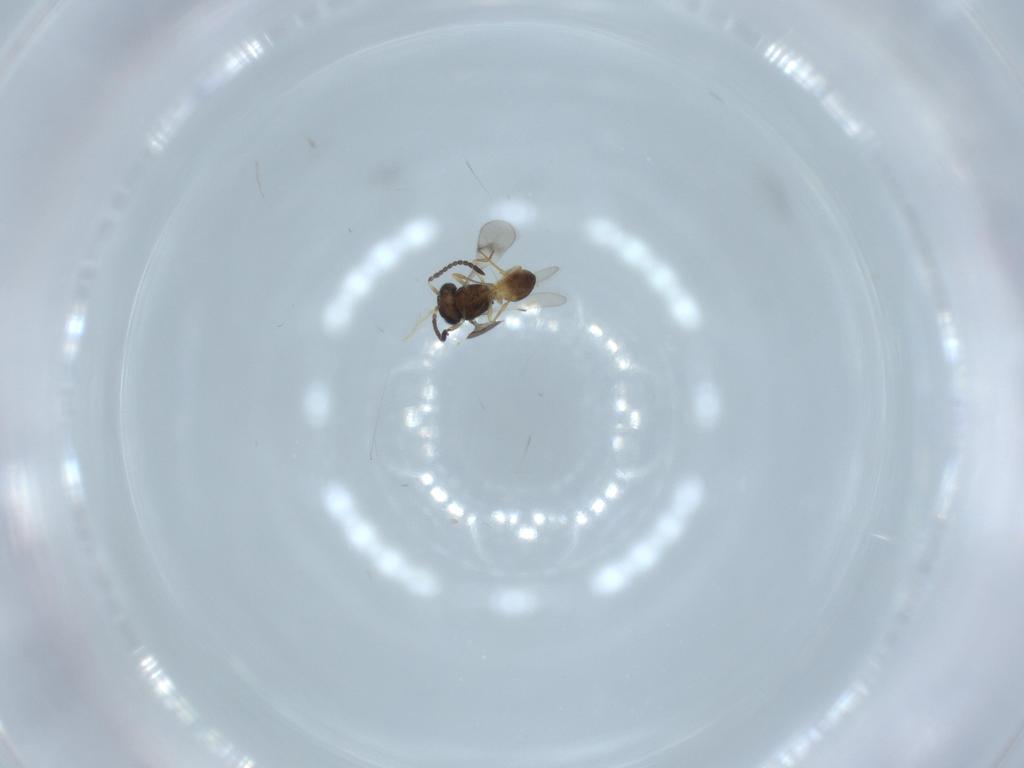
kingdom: Animalia
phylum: Arthropoda
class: Arachnida
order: Araneae
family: Pholcidae
